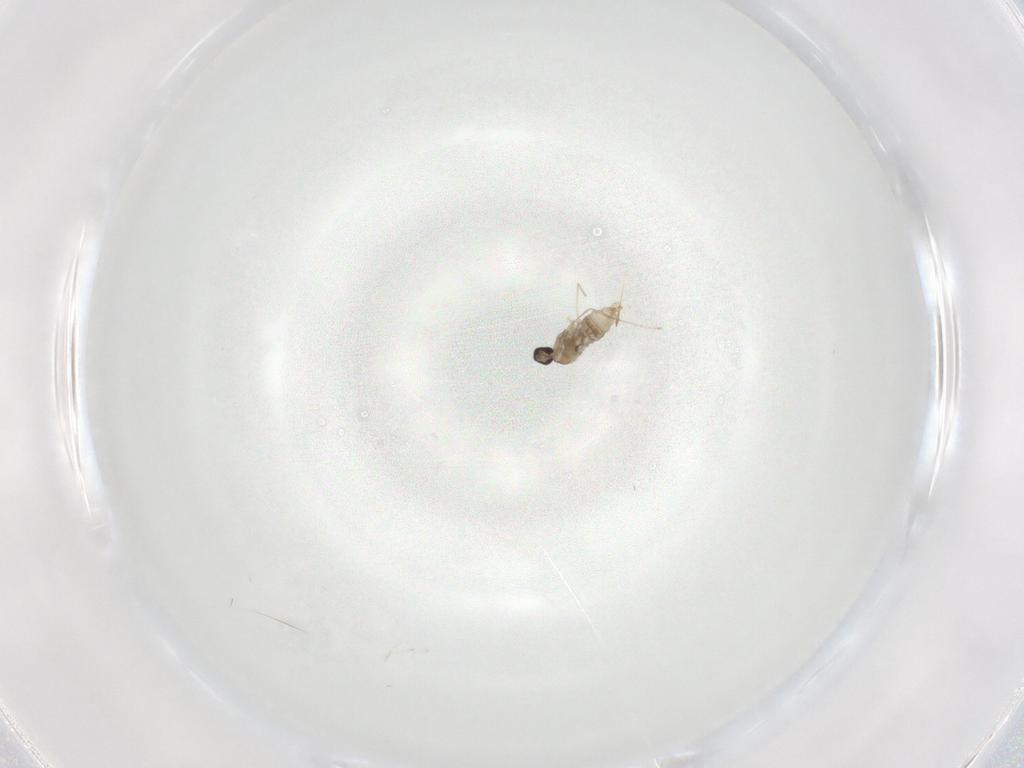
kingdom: Animalia
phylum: Arthropoda
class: Insecta
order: Diptera
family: Cecidomyiidae
